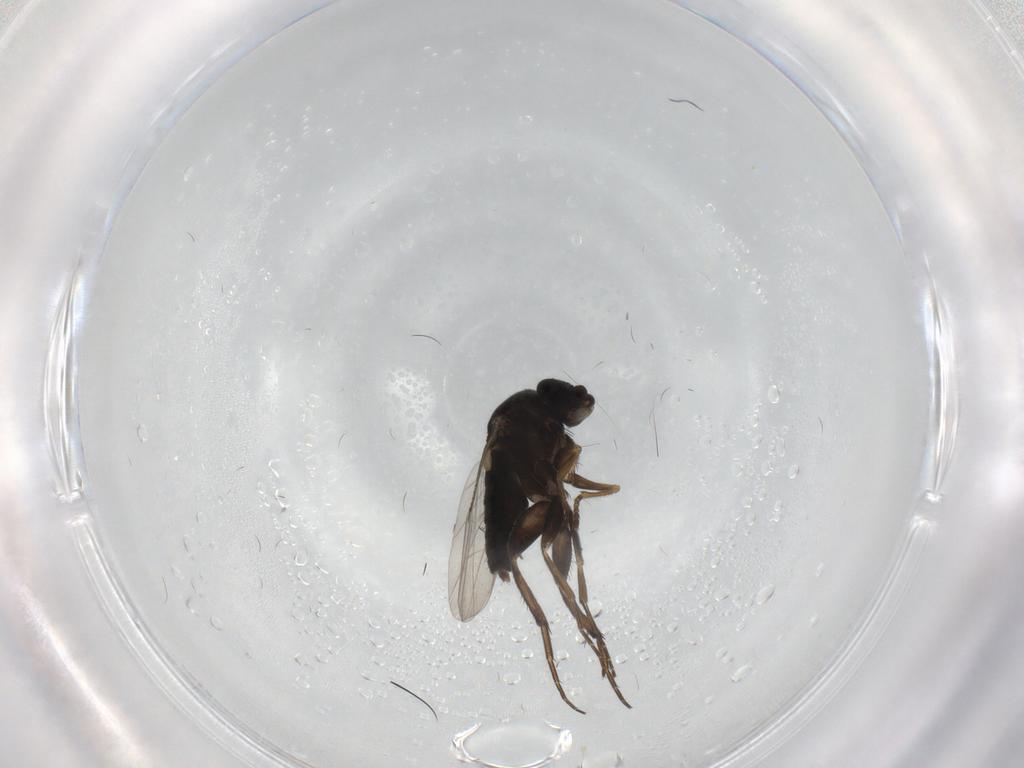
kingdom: Animalia
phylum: Arthropoda
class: Insecta
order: Diptera
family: Phoridae
